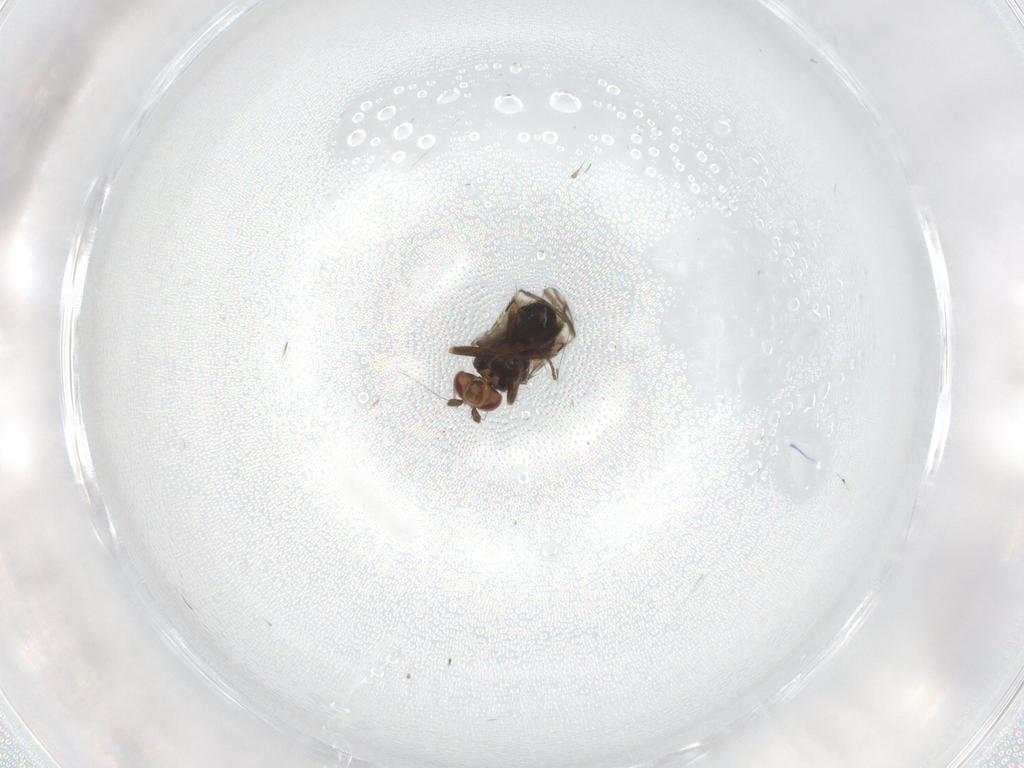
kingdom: Animalia
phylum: Arthropoda
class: Insecta
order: Diptera
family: Sphaeroceridae
